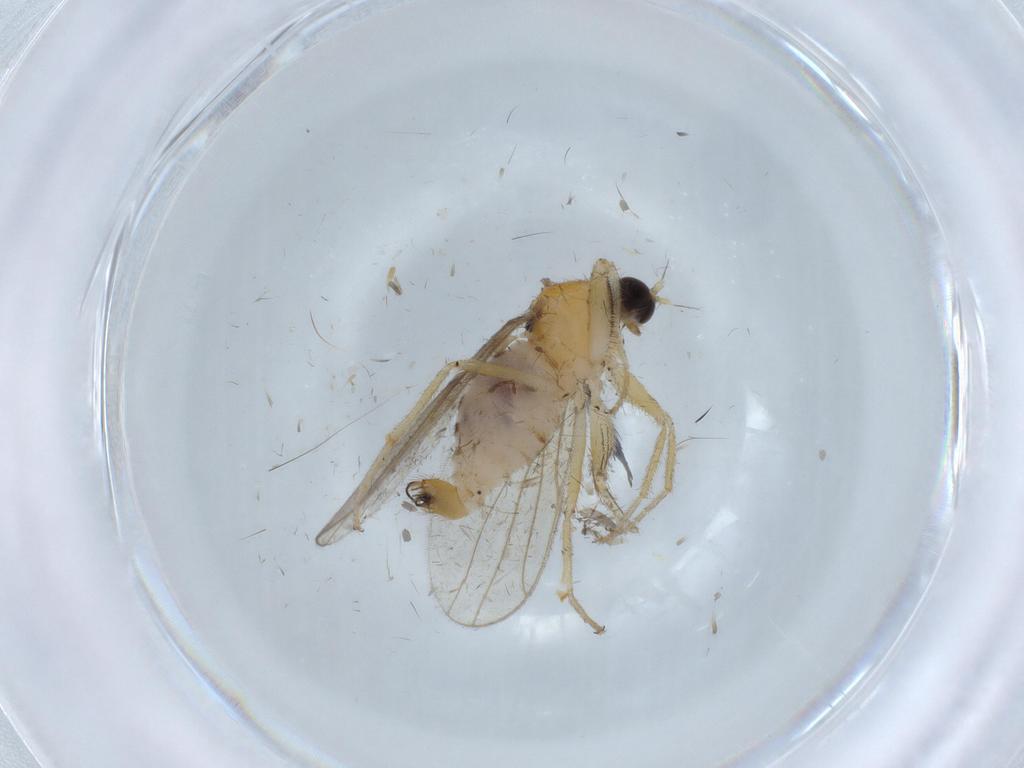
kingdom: Animalia
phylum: Arthropoda
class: Insecta
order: Diptera
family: Hybotidae
